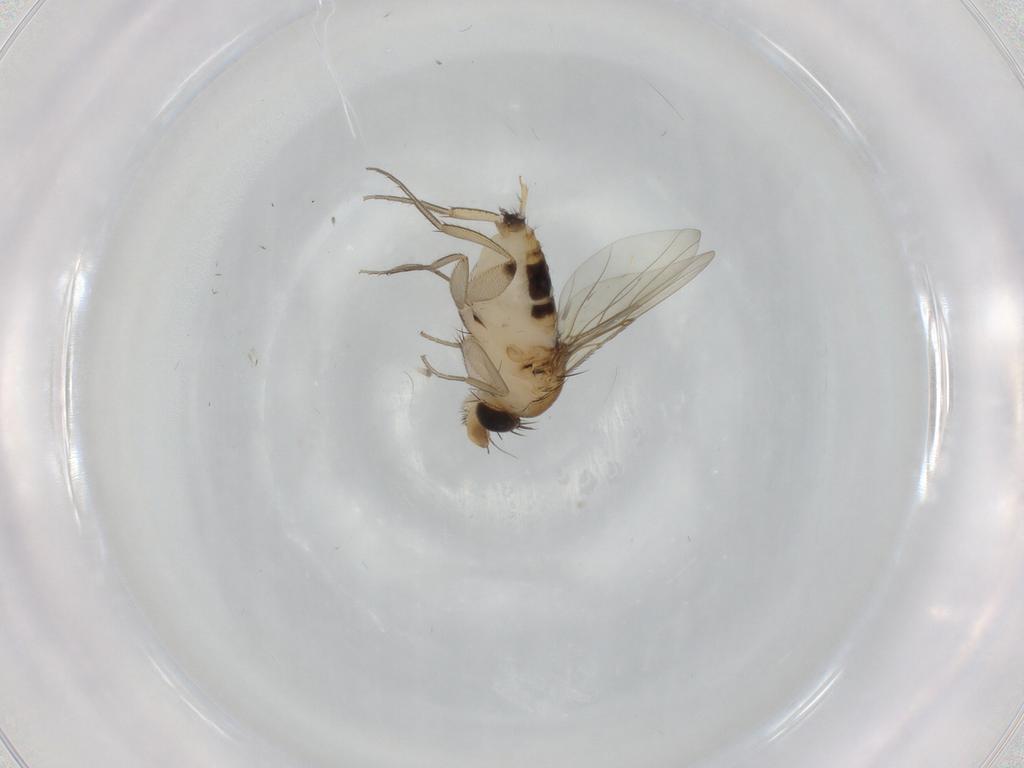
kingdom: Animalia
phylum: Arthropoda
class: Insecta
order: Diptera
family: Phoridae
